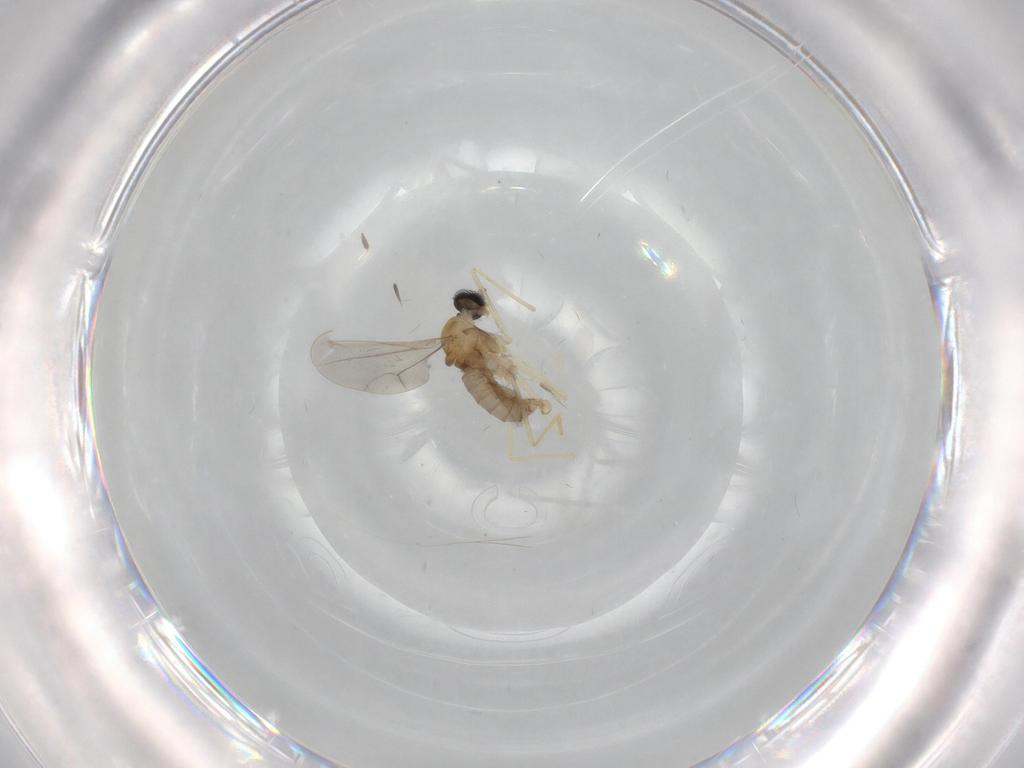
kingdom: Animalia
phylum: Arthropoda
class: Insecta
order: Diptera
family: Cecidomyiidae
